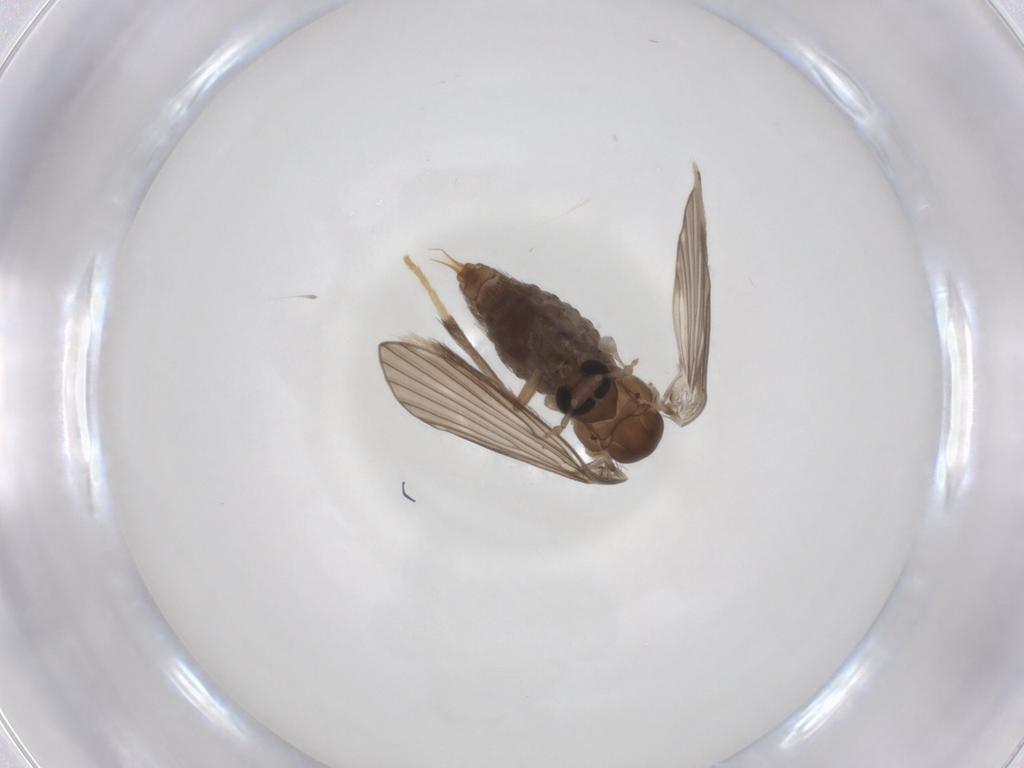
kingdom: Animalia
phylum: Arthropoda
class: Insecta
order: Diptera
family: Psychodidae
